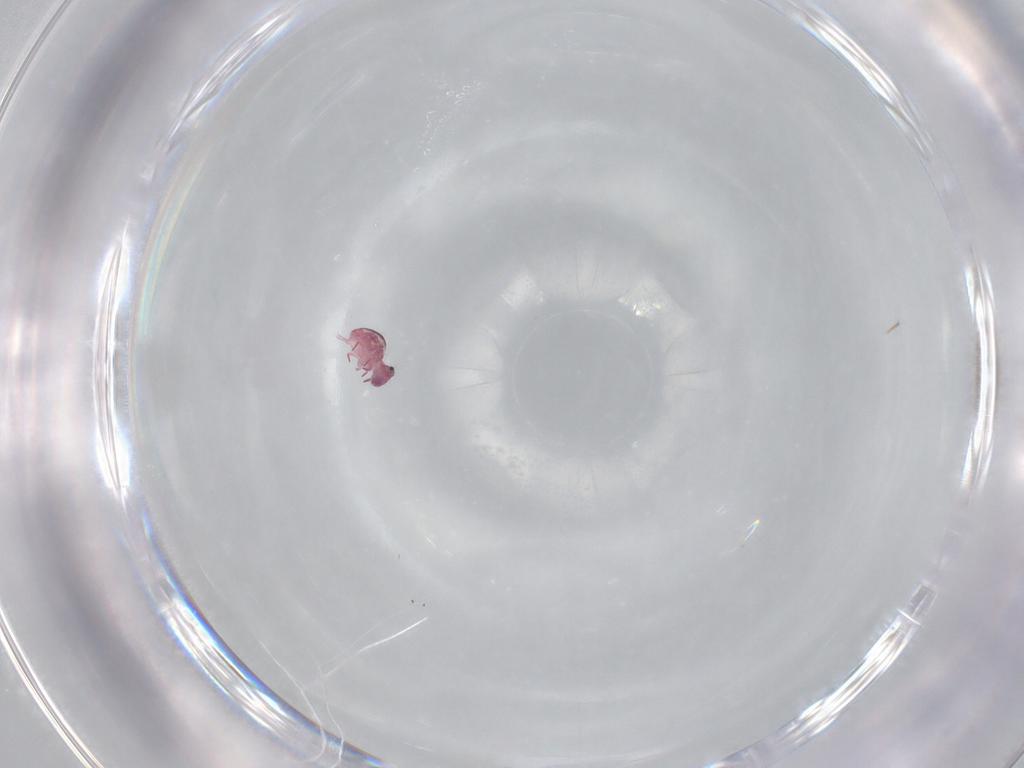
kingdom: Animalia
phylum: Arthropoda
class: Collembola
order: Symphypleona
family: Sminthurididae
